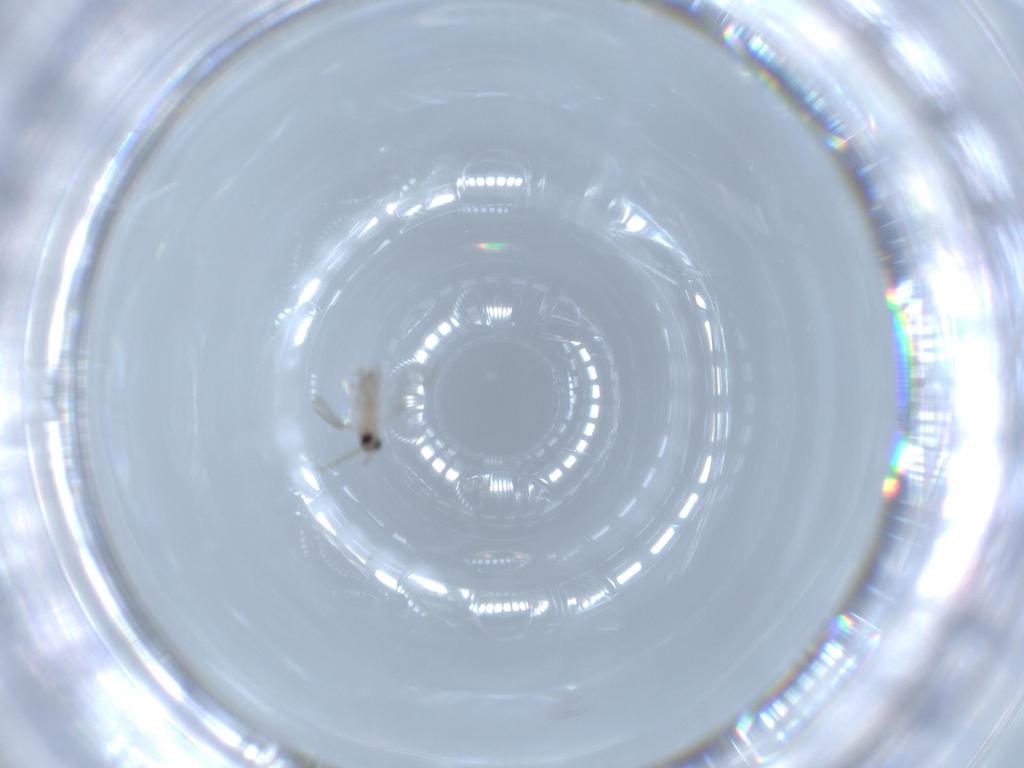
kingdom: Animalia
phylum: Arthropoda
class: Insecta
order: Diptera
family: Cecidomyiidae
